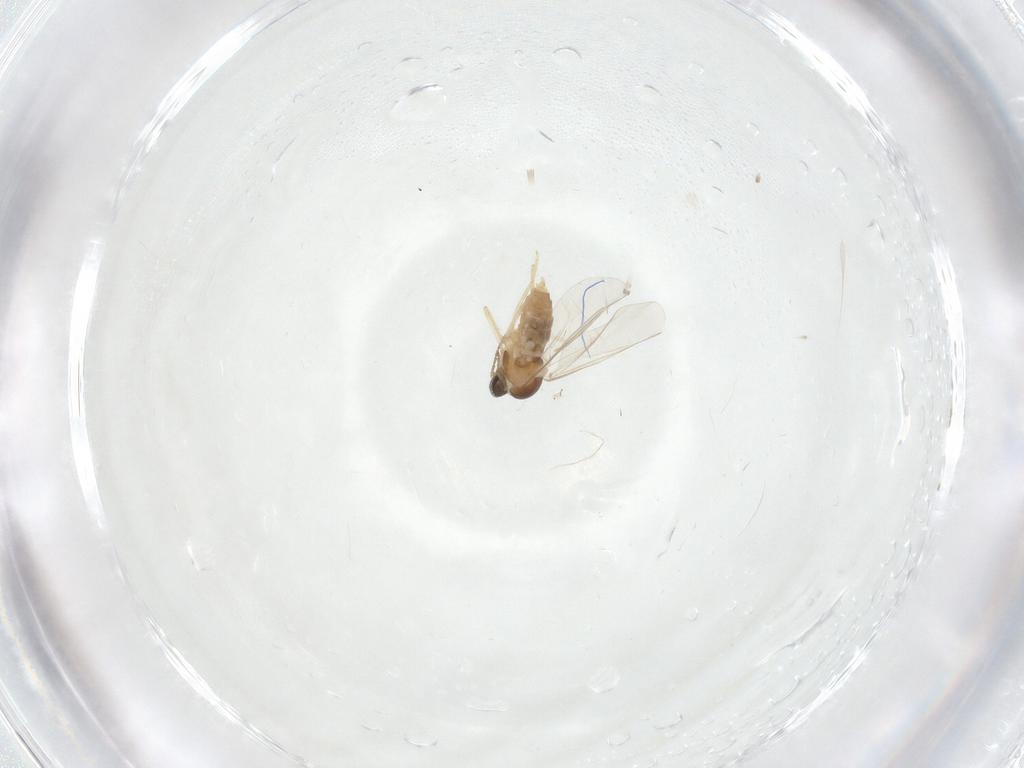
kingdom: Animalia
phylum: Arthropoda
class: Insecta
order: Diptera
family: Cecidomyiidae
